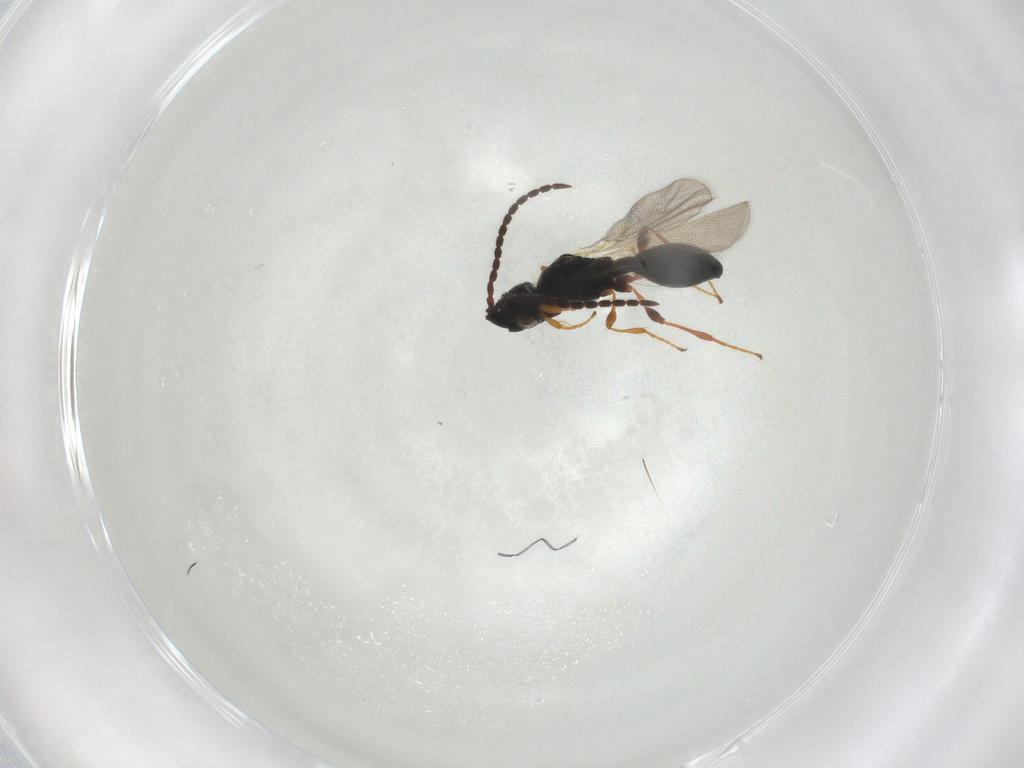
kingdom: Animalia
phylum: Arthropoda
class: Insecta
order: Hymenoptera
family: Diapriidae
